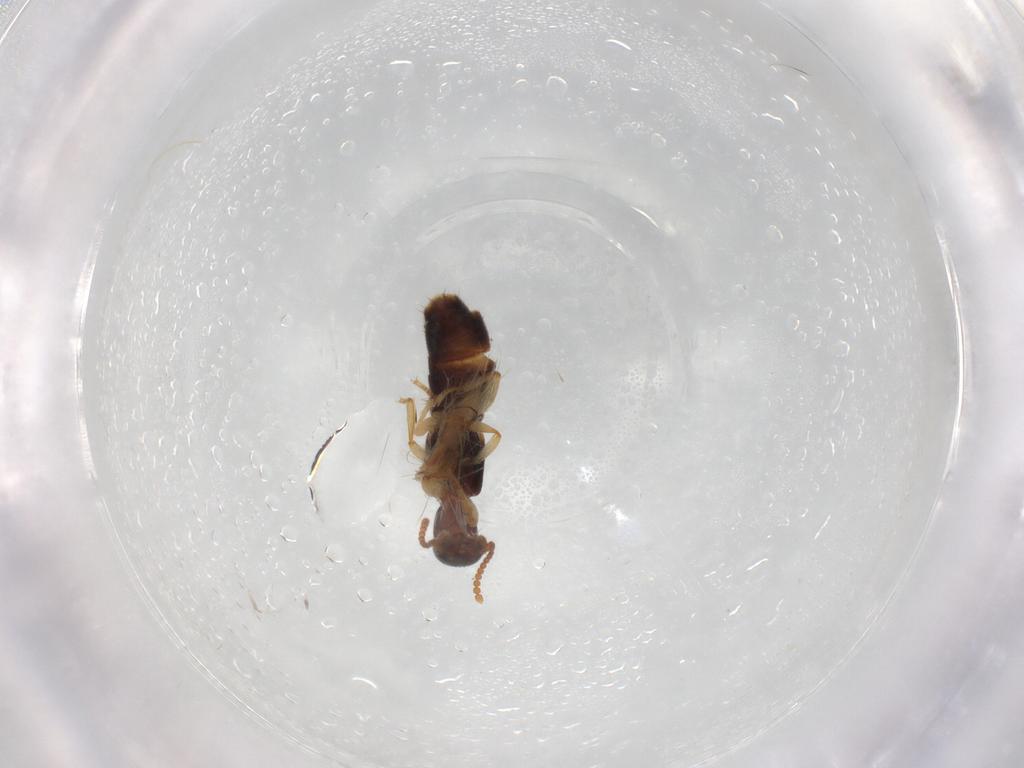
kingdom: Animalia
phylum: Arthropoda
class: Insecta
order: Coleoptera
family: Staphylinidae
